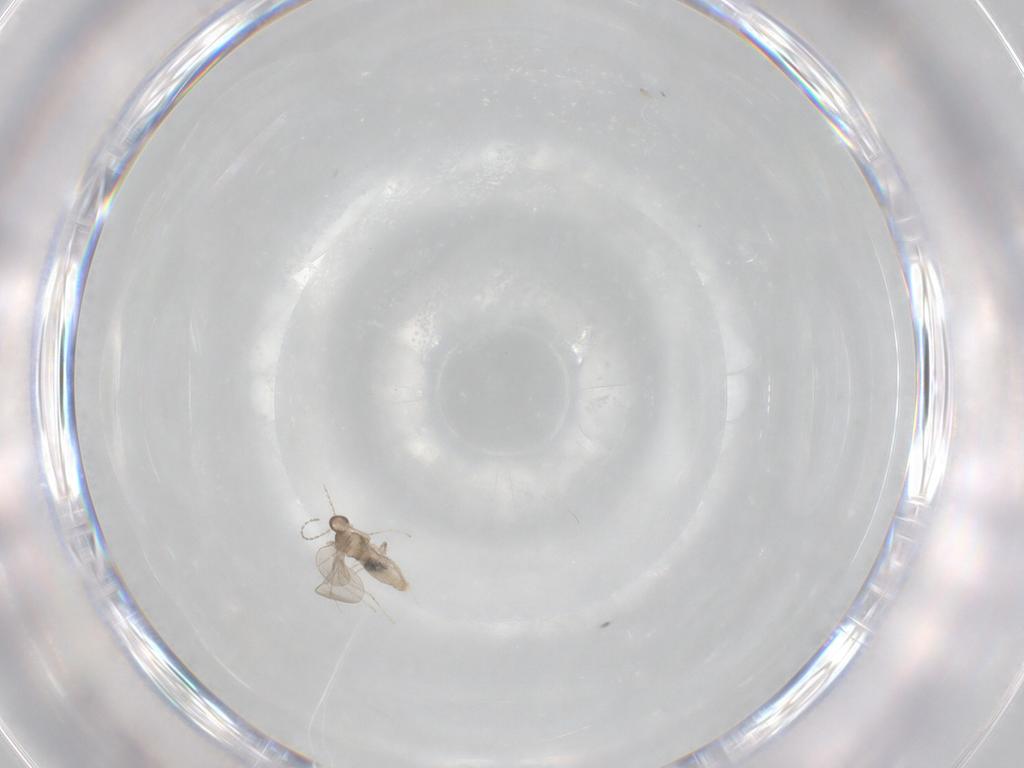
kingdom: Animalia
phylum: Arthropoda
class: Insecta
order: Diptera
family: Cecidomyiidae
